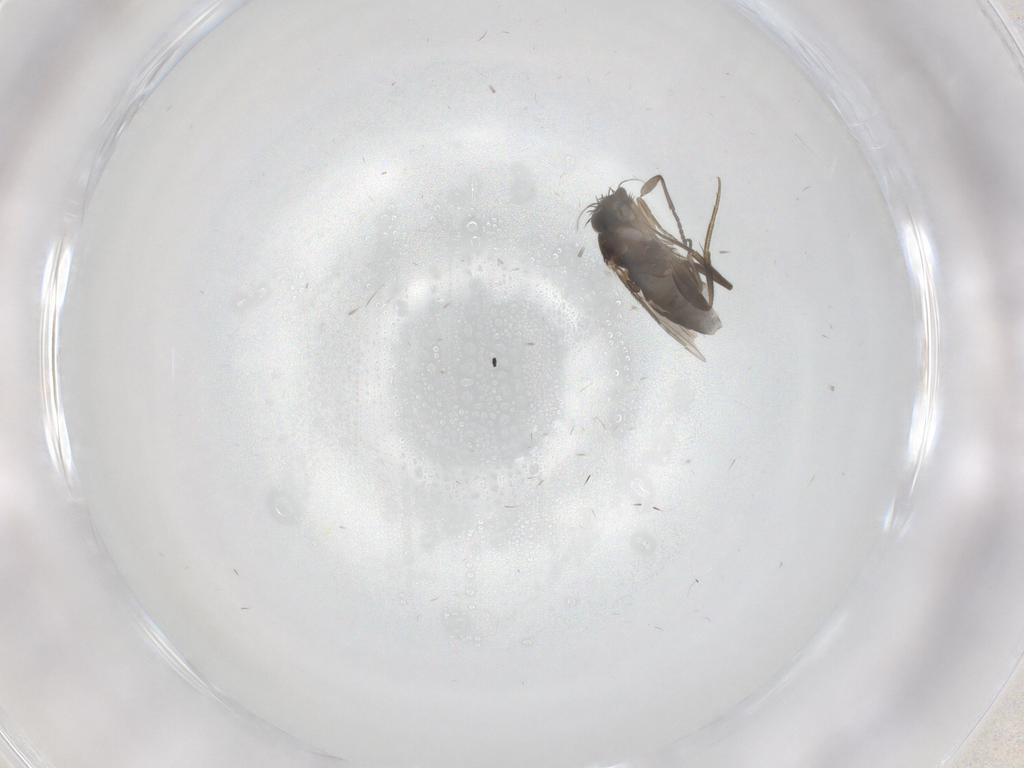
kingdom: Animalia
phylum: Arthropoda
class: Insecta
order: Diptera
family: Phoridae
